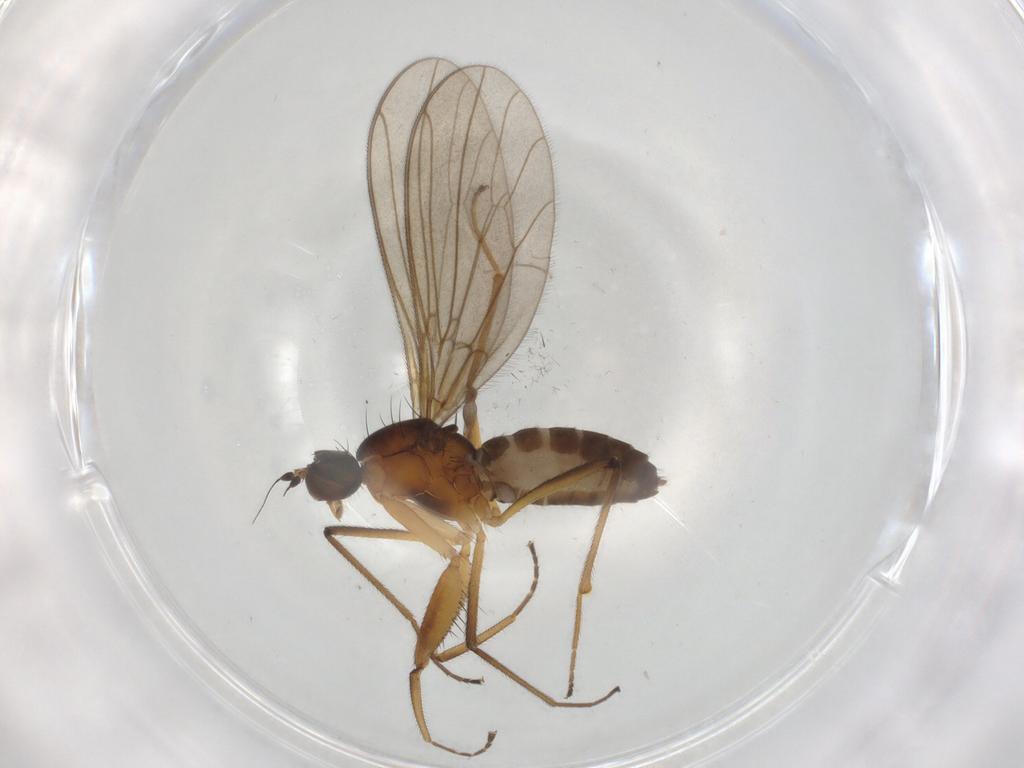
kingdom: Animalia
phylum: Arthropoda
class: Insecta
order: Diptera
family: Empididae
